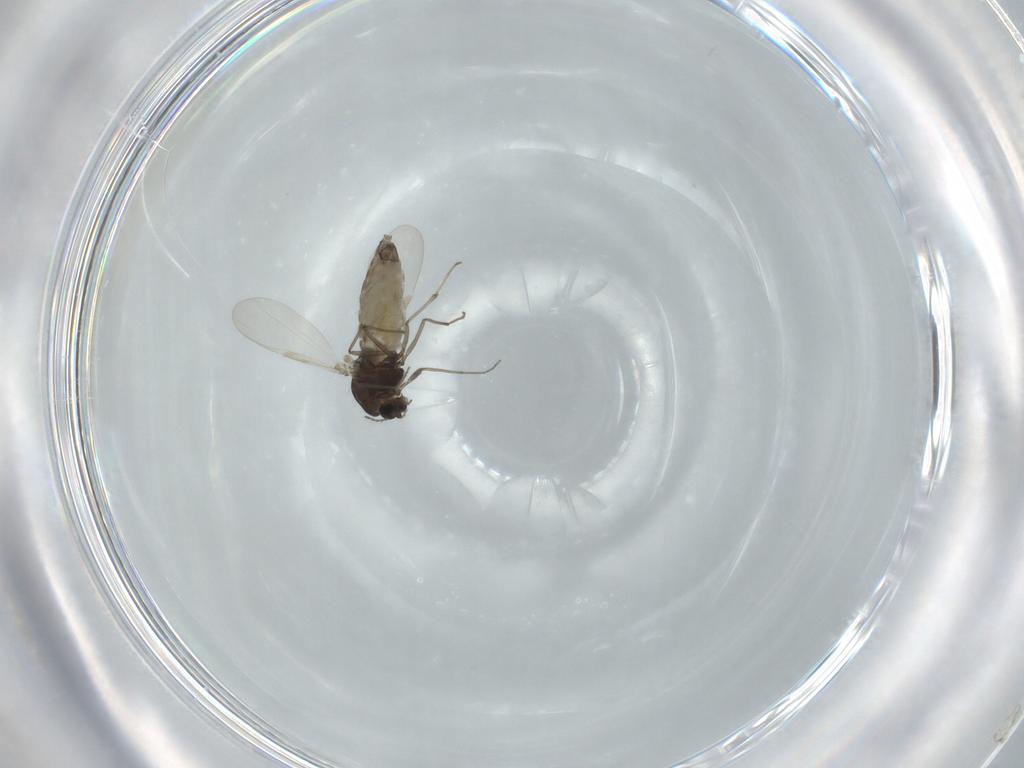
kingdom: Animalia
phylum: Arthropoda
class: Insecta
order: Diptera
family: Chironomidae
